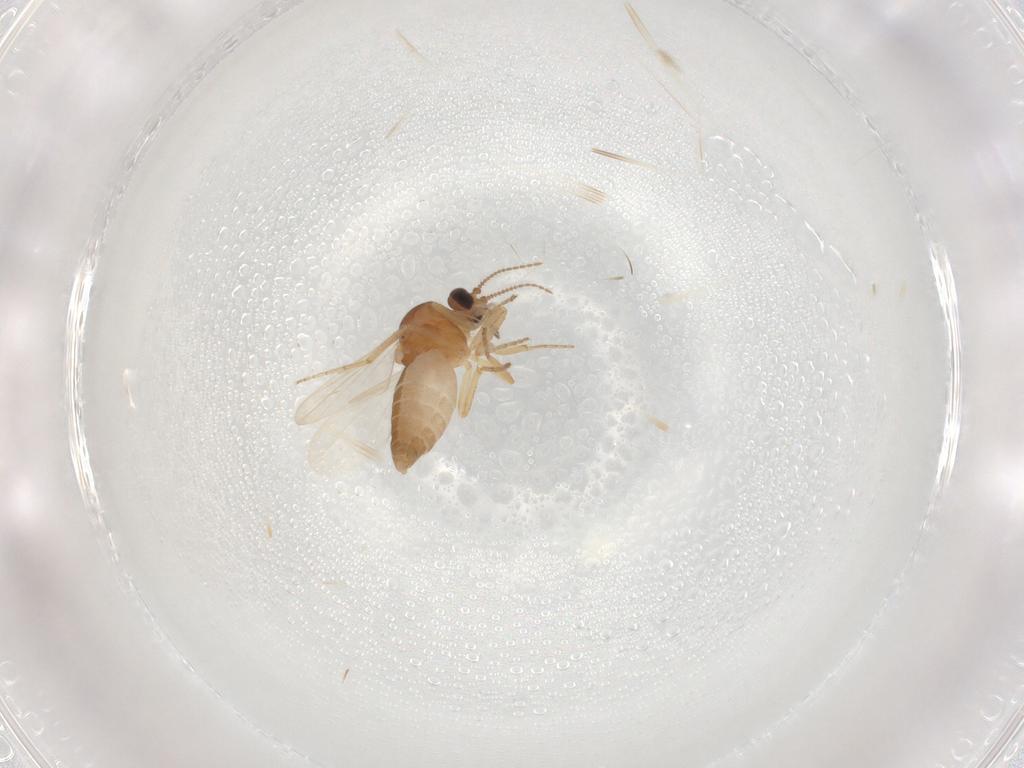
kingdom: Animalia
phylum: Arthropoda
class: Insecta
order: Diptera
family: Ceratopogonidae
